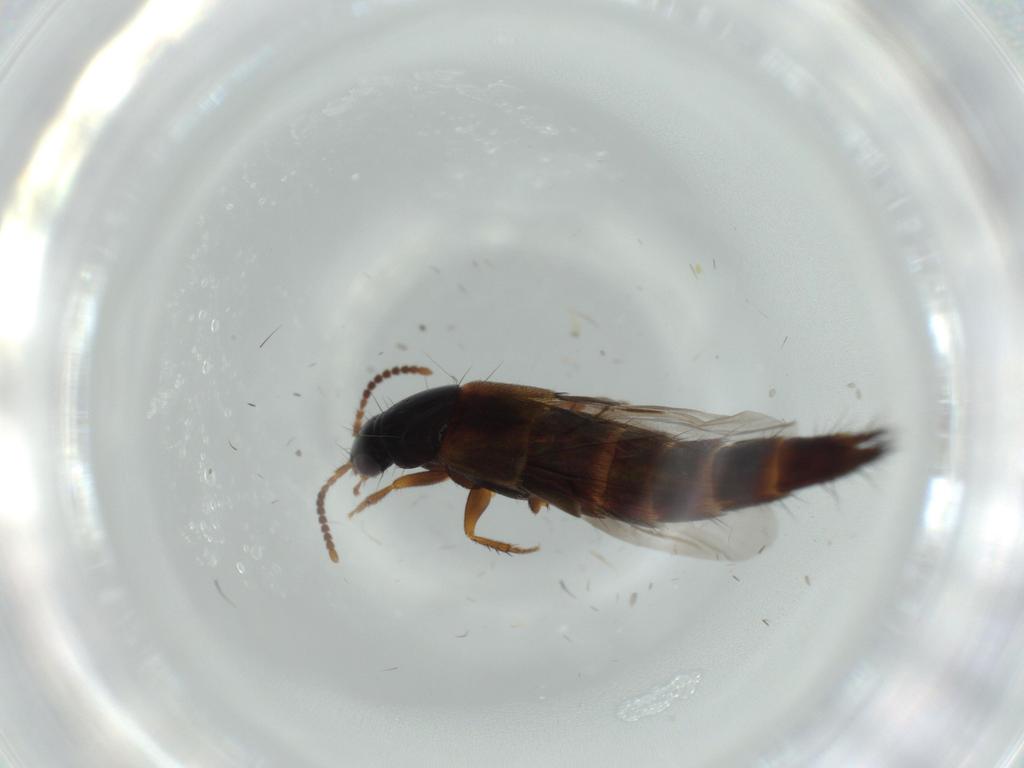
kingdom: Animalia
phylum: Arthropoda
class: Insecta
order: Coleoptera
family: Staphylinidae
